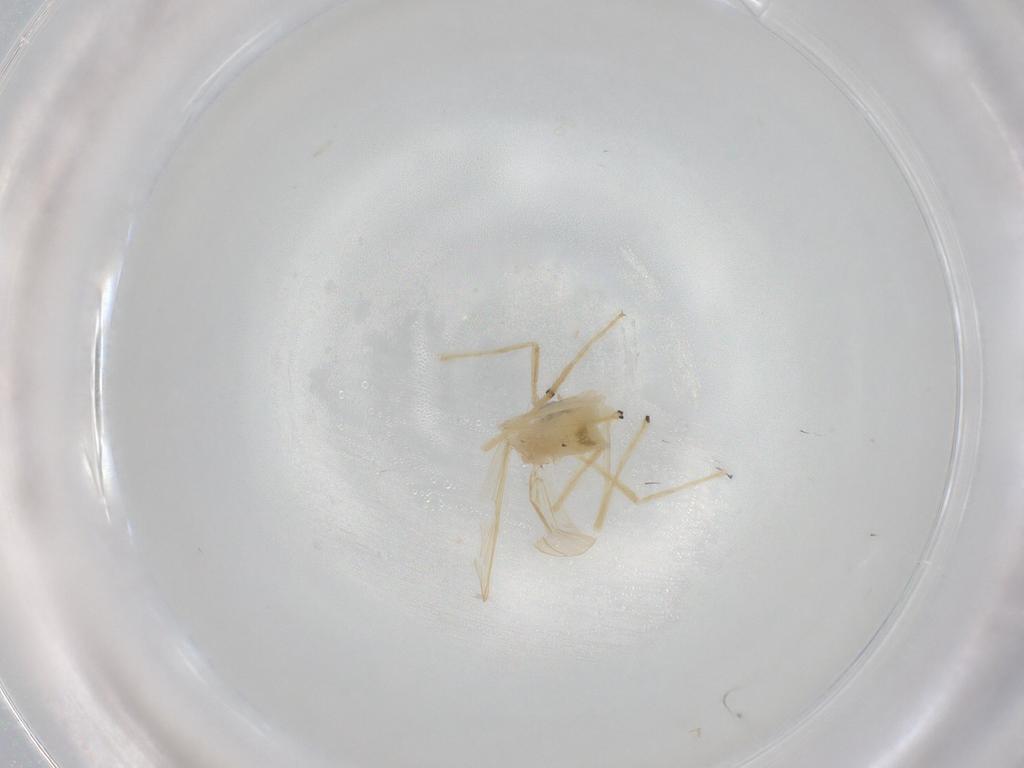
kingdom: Animalia
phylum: Arthropoda
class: Insecta
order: Diptera
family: Chironomidae
